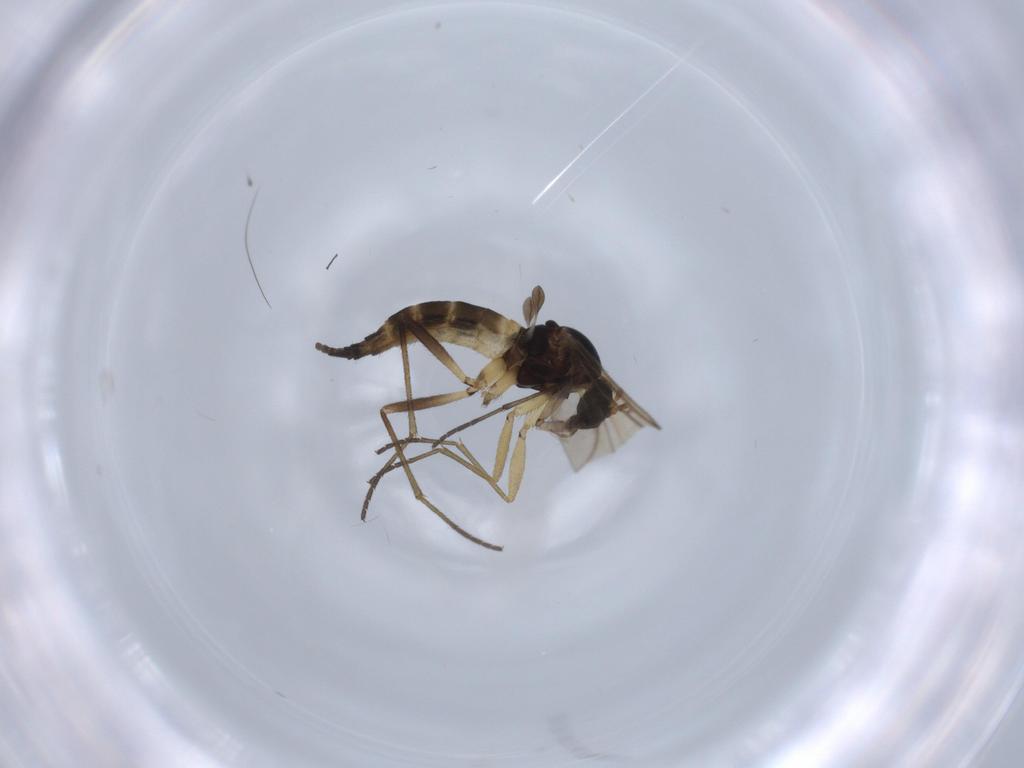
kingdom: Animalia
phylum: Arthropoda
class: Insecta
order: Diptera
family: Sciaridae
